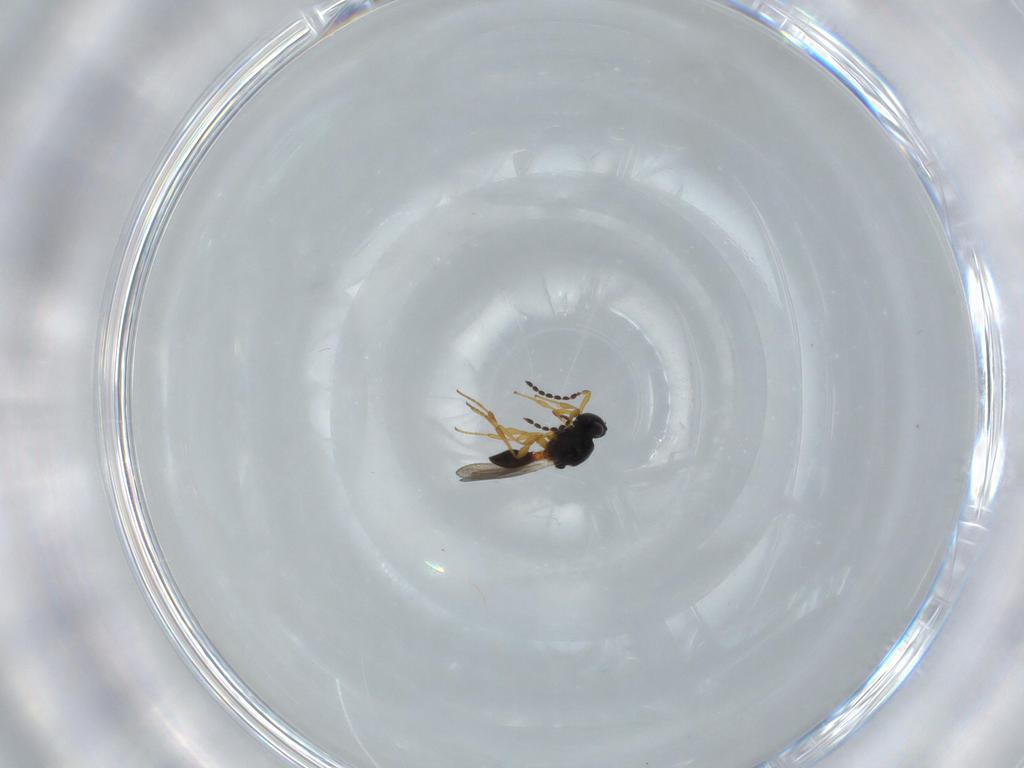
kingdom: Animalia
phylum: Arthropoda
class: Insecta
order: Hymenoptera
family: Platygastridae
